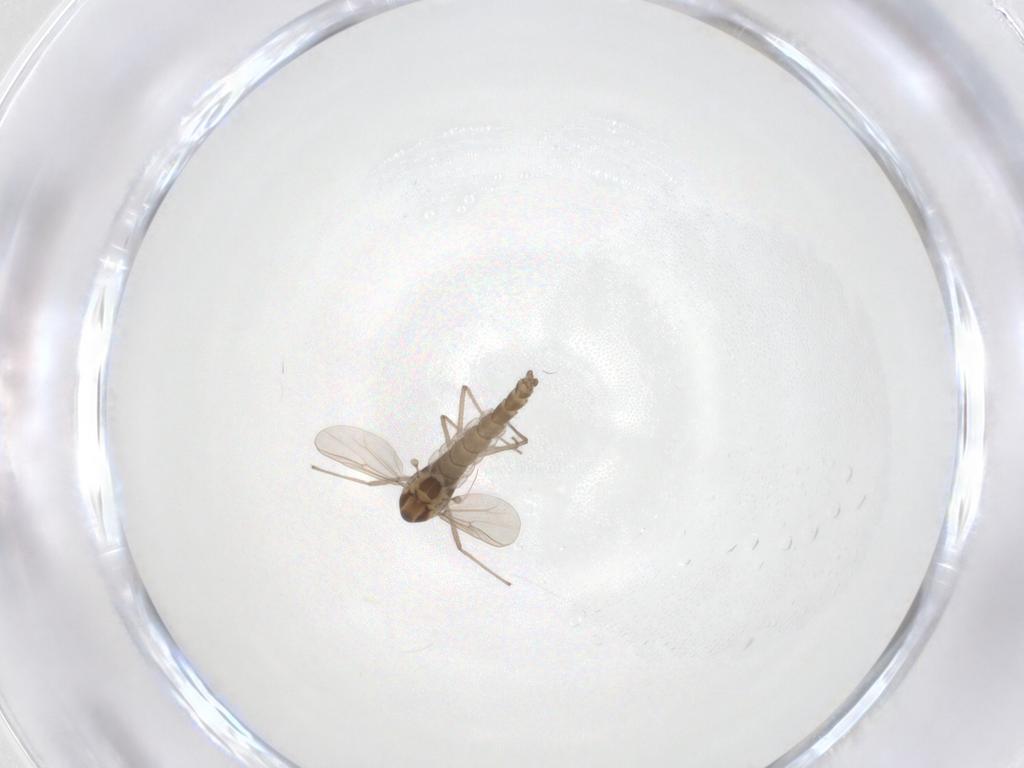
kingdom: Animalia
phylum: Arthropoda
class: Insecta
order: Diptera
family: Chironomidae
